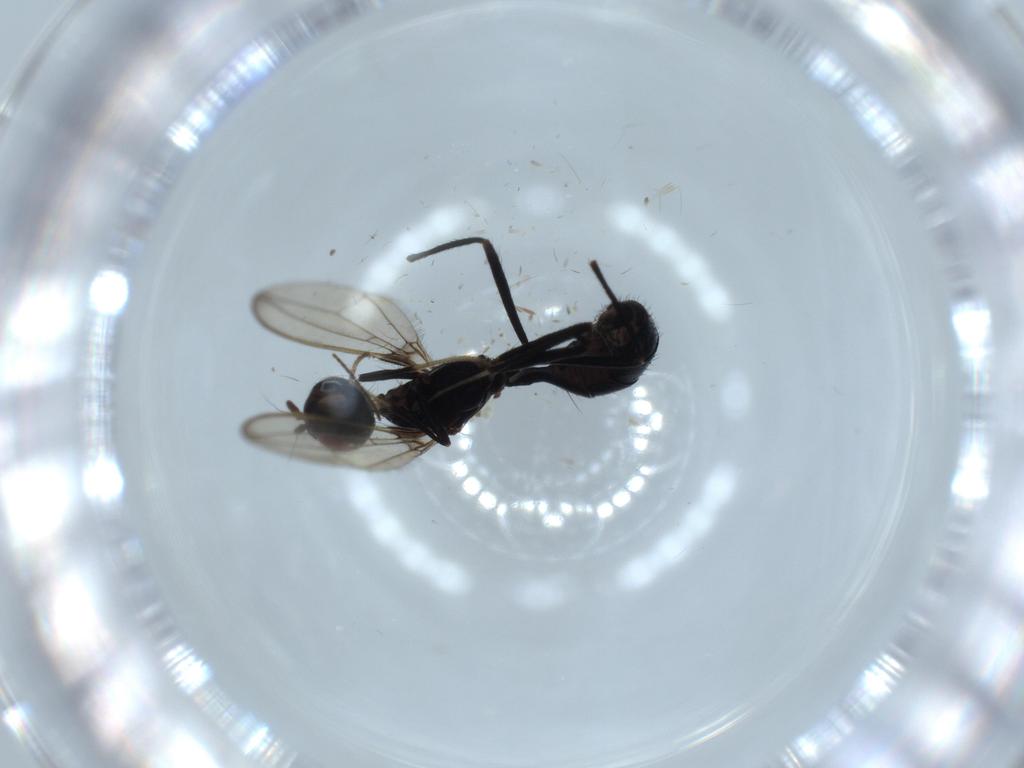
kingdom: Animalia
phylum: Arthropoda
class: Insecta
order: Diptera
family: Richardiidae
